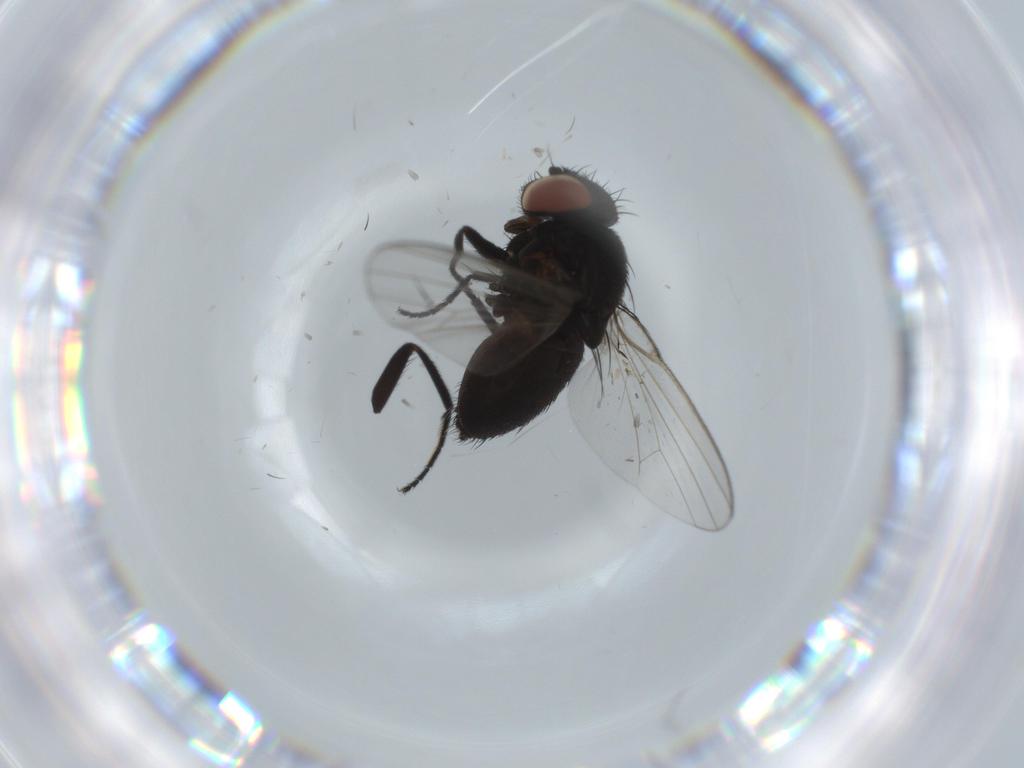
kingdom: Animalia
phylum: Arthropoda
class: Insecta
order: Diptera
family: Milichiidae
